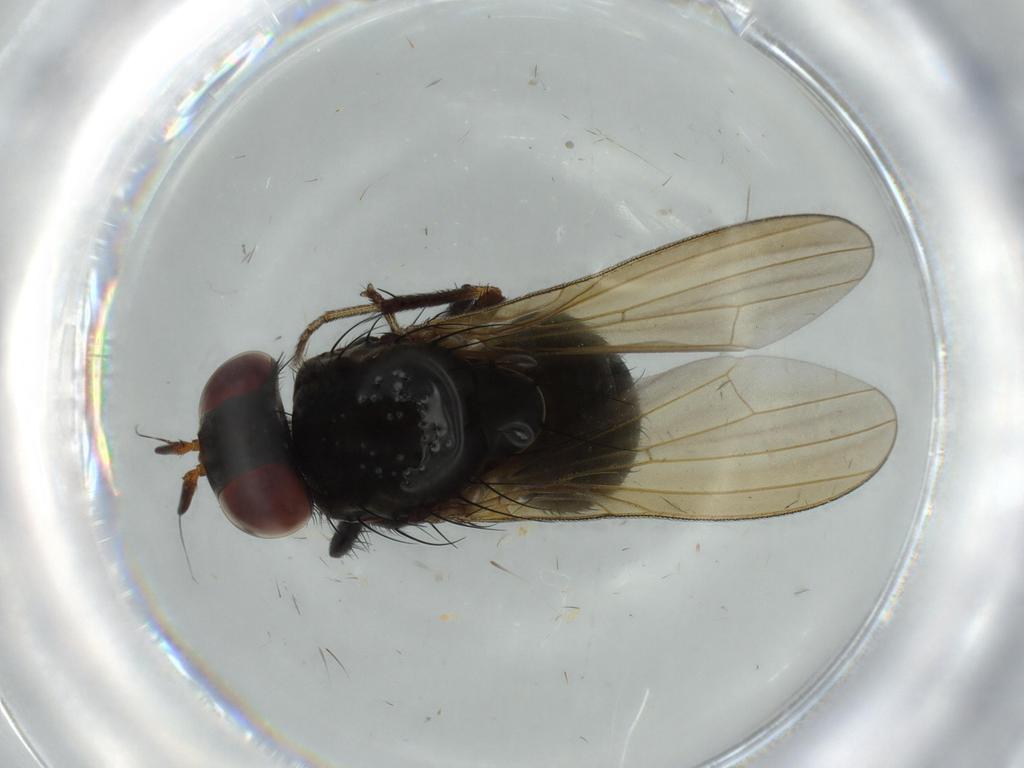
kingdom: Animalia
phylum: Arthropoda
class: Insecta
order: Diptera
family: Lauxaniidae
